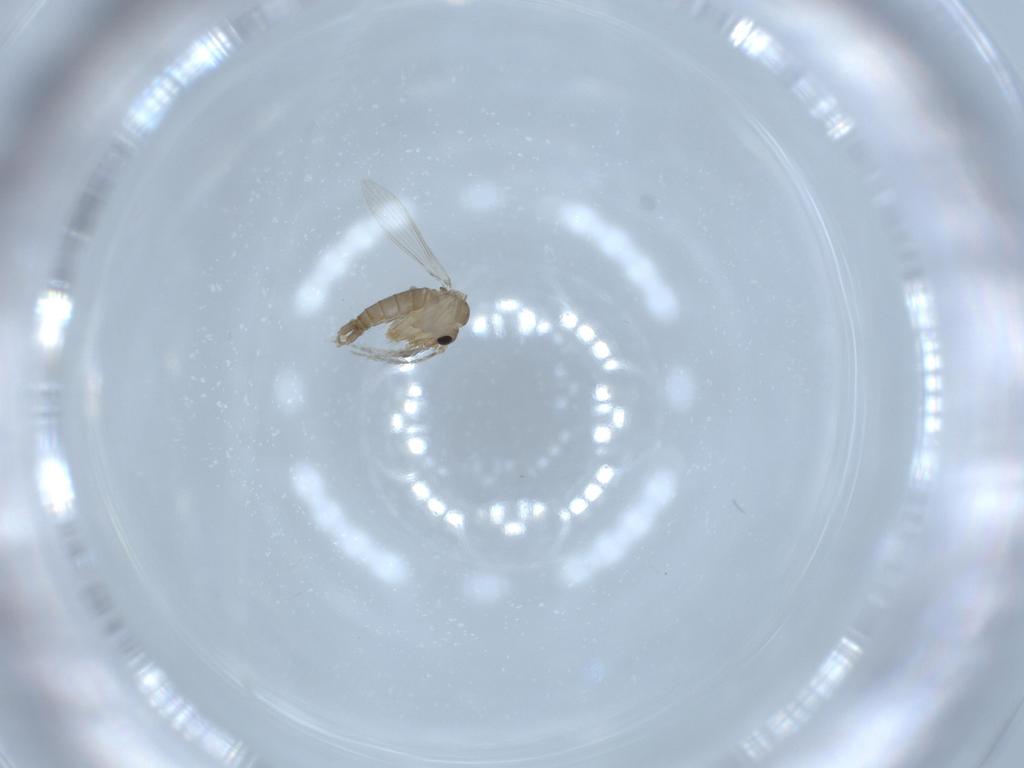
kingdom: Animalia
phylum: Arthropoda
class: Insecta
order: Diptera
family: Psychodidae
